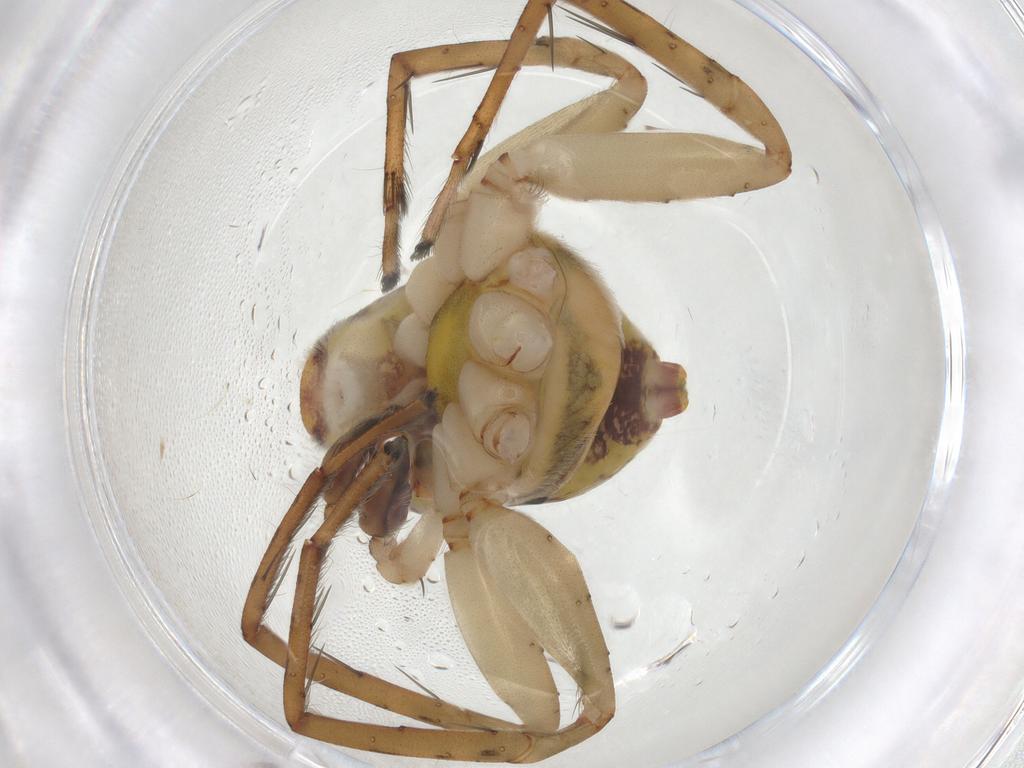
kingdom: Animalia
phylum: Arthropoda
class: Arachnida
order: Araneae
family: Anyphaenidae
